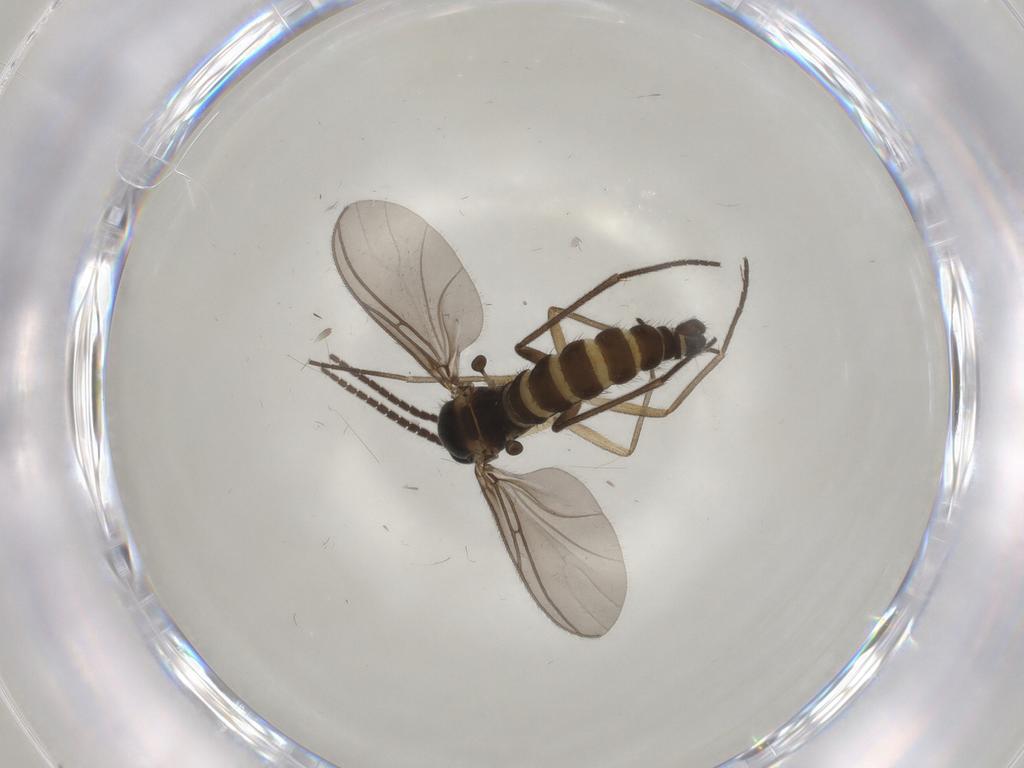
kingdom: Animalia
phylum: Arthropoda
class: Insecta
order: Diptera
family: Sciaridae
